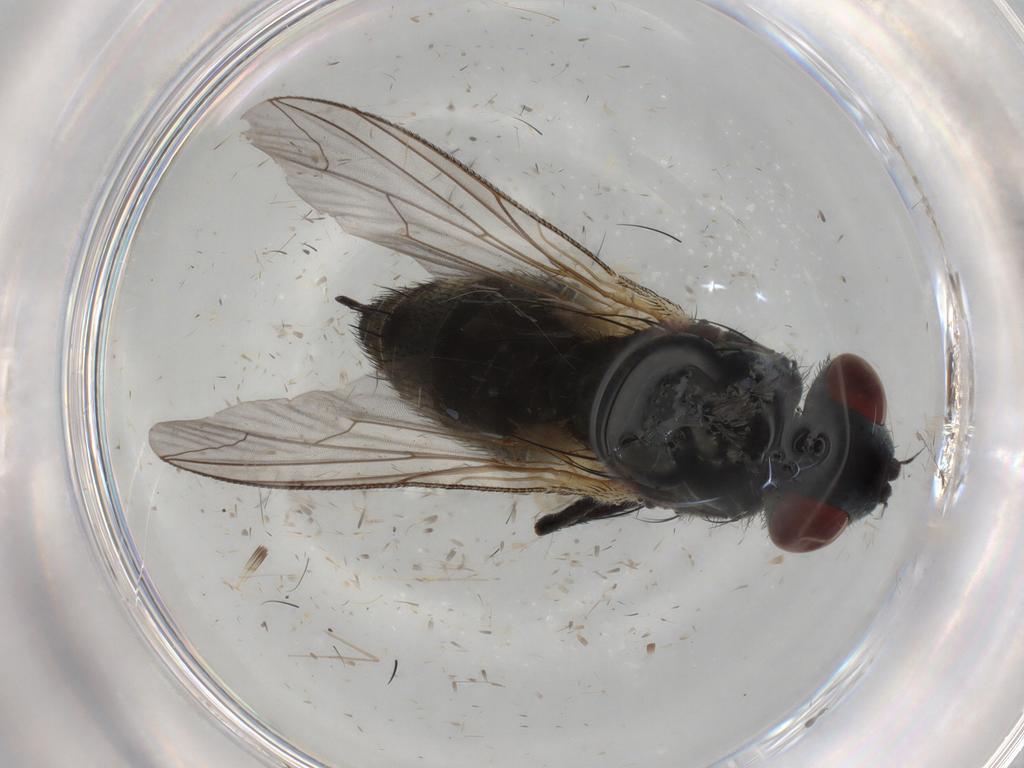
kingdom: Animalia
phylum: Arthropoda
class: Insecta
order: Diptera
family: Sarcophagidae
